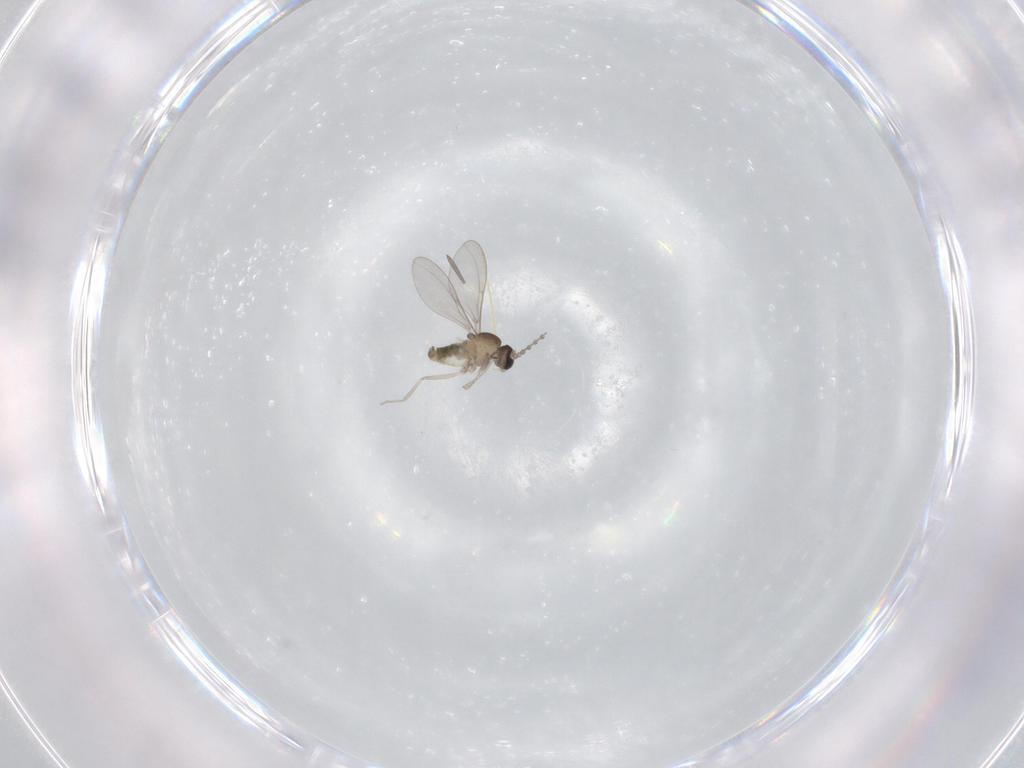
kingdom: Animalia
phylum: Arthropoda
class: Insecta
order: Diptera
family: Cecidomyiidae
